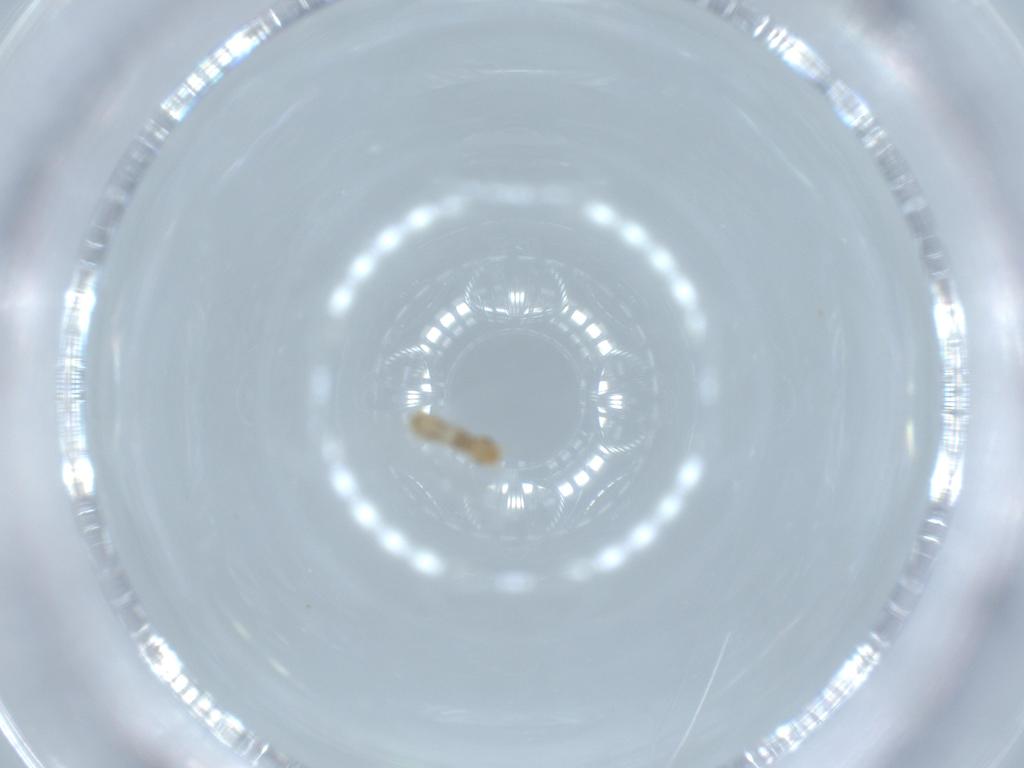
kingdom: Animalia
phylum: Arthropoda
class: Insecta
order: Psocodea
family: Liposcelididae
